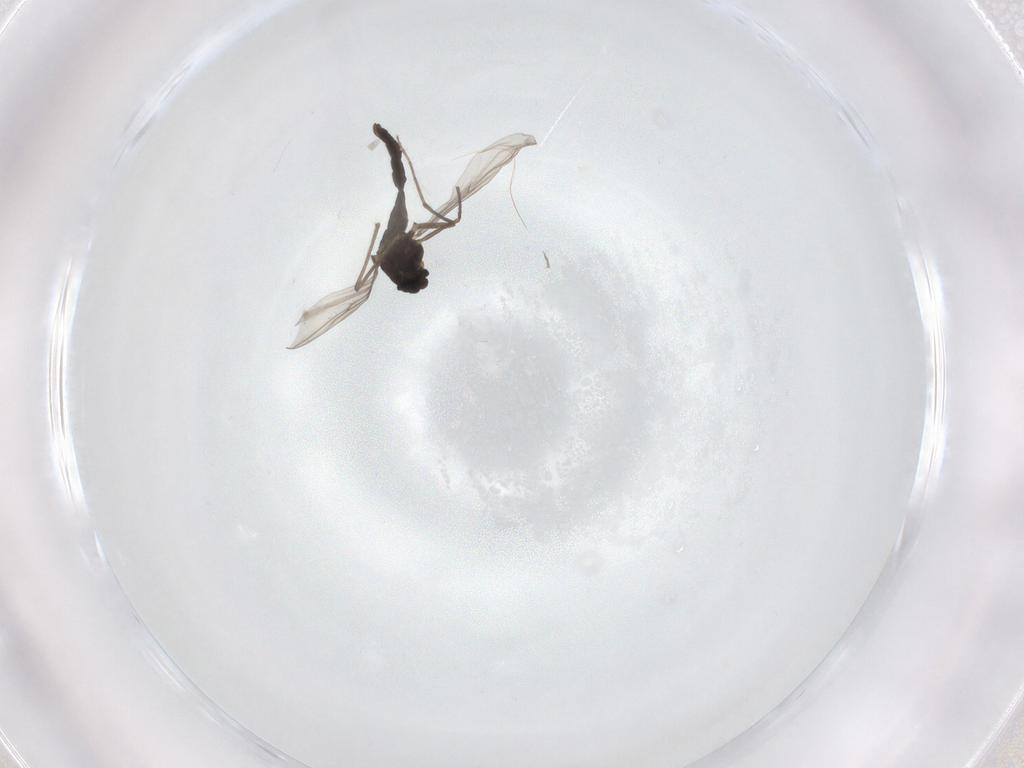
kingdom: Animalia
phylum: Arthropoda
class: Insecta
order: Diptera
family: Chironomidae
